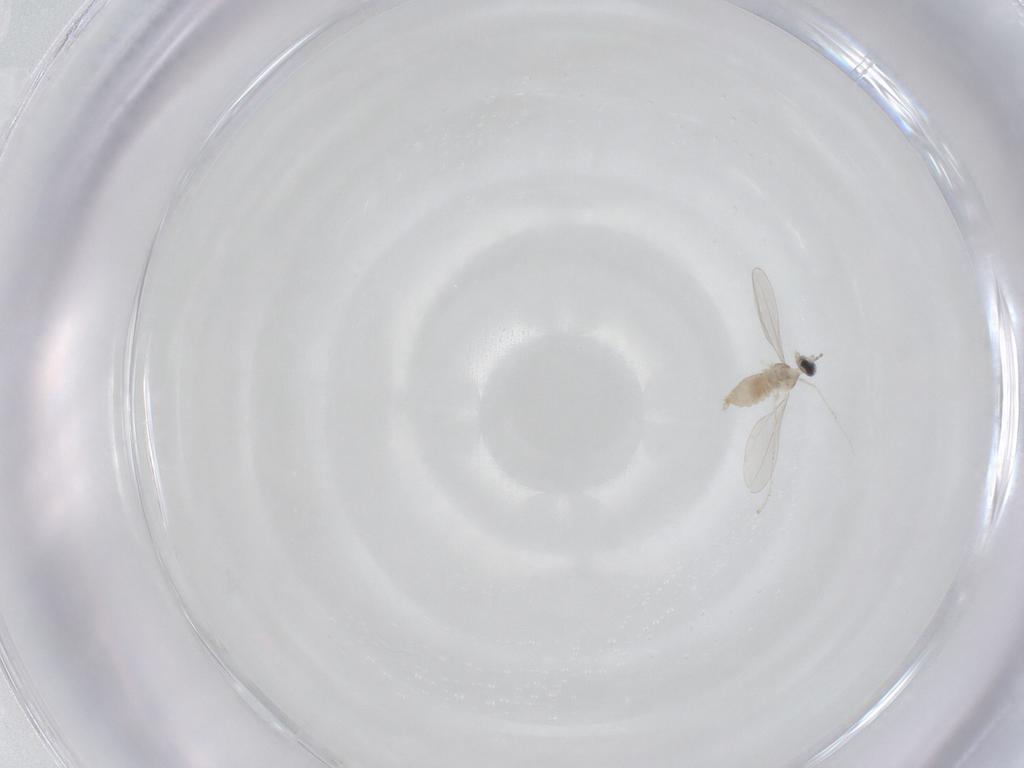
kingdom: Animalia
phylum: Arthropoda
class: Insecta
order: Diptera
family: Cecidomyiidae
